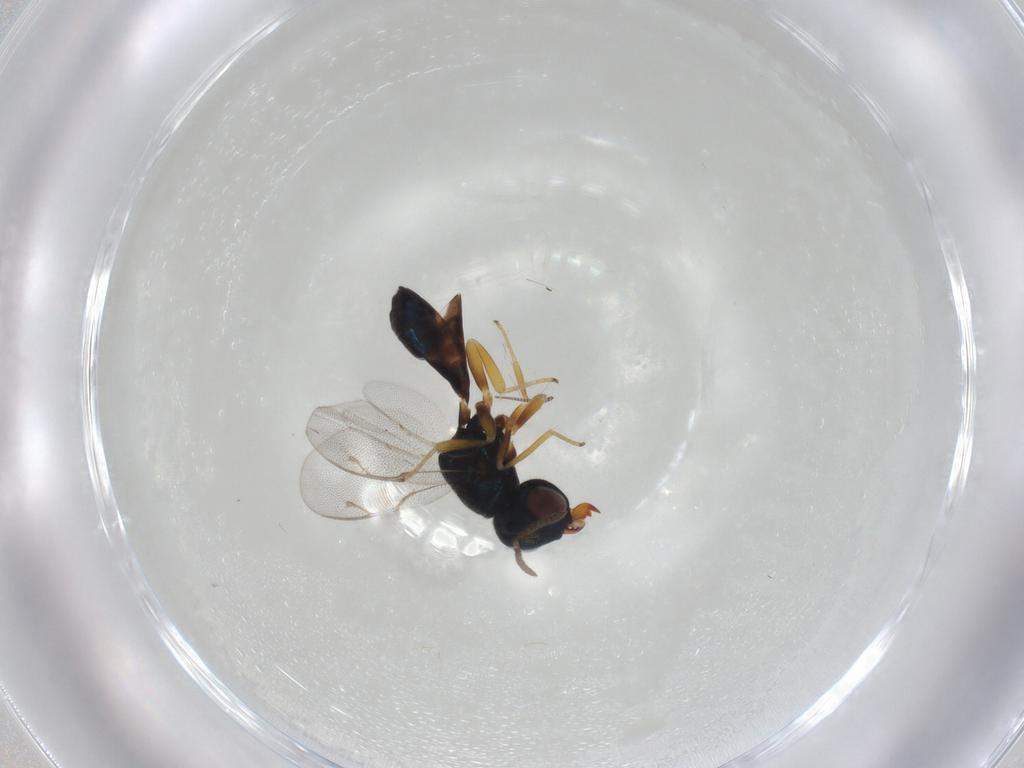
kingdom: Animalia
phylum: Arthropoda
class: Insecta
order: Hymenoptera
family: Pteromalidae
